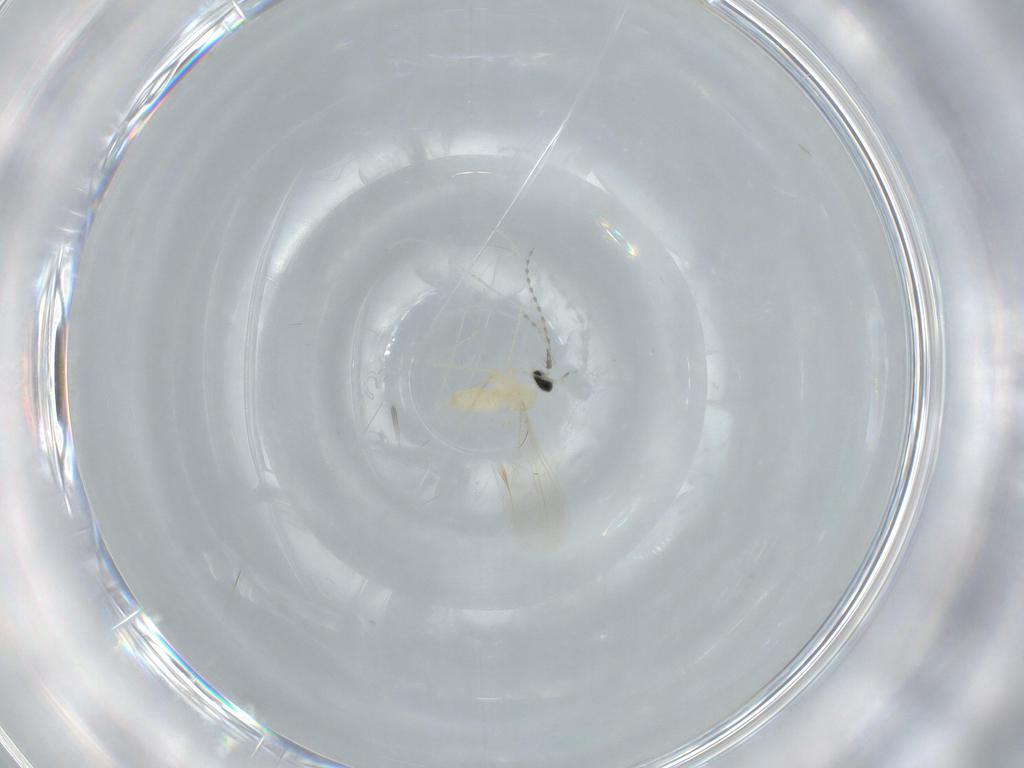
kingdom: Animalia
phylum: Arthropoda
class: Insecta
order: Diptera
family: Cecidomyiidae
